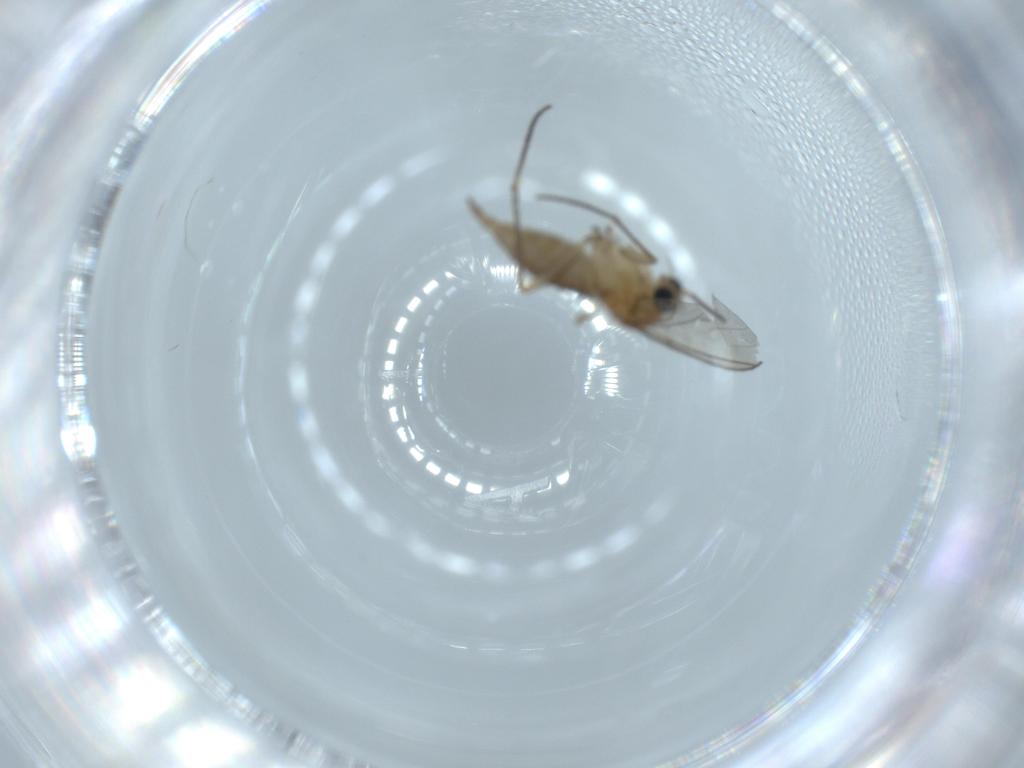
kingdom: Animalia
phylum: Arthropoda
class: Insecta
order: Diptera
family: Sciaridae
